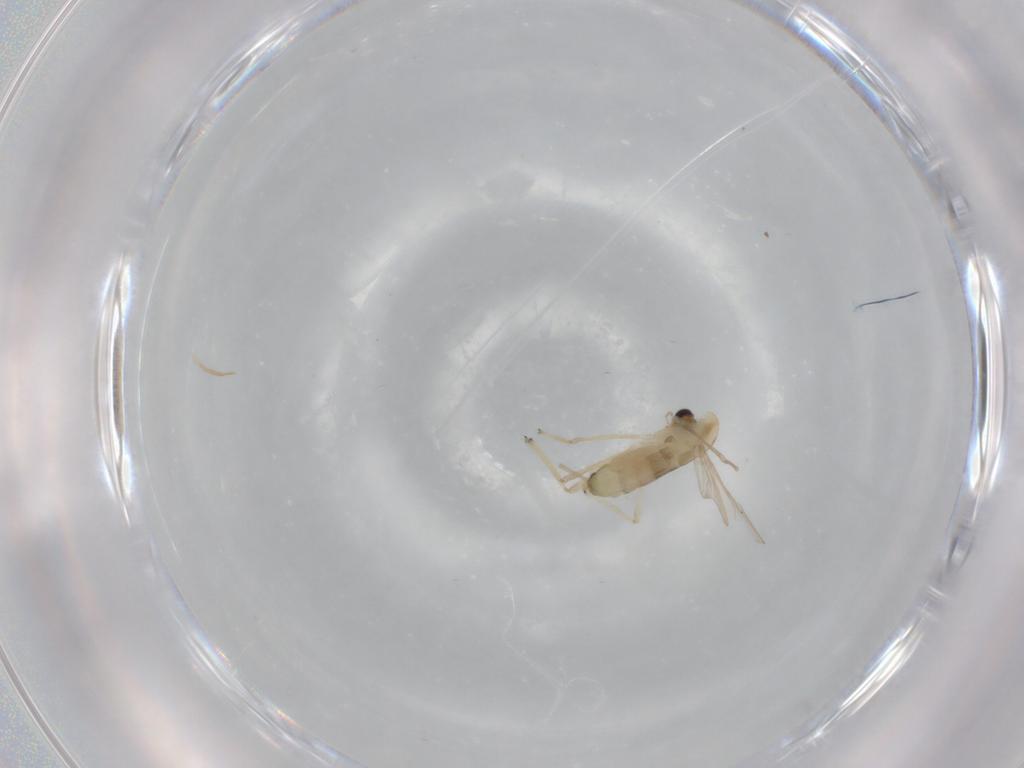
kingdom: Animalia
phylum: Arthropoda
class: Insecta
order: Diptera
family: Chironomidae
